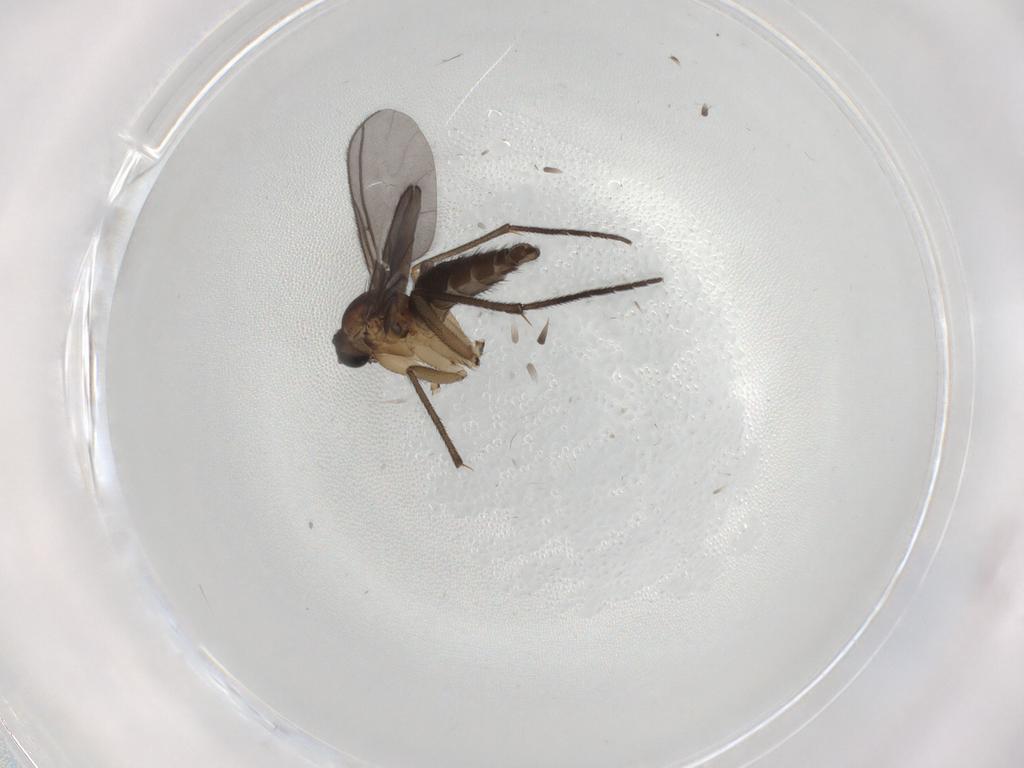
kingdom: Animalia
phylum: Arthropoda
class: Insecta
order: Diptera
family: Sciaridae
